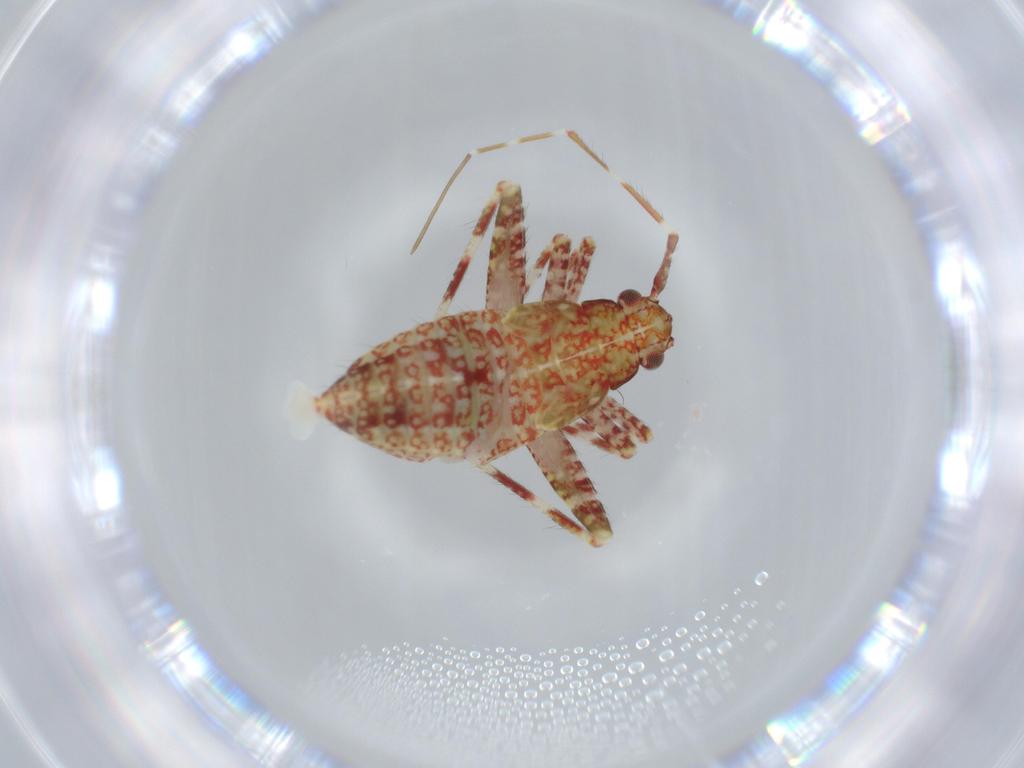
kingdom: Animalia
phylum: Arthropoda
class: Insecta
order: Hemiptera
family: Miridae
